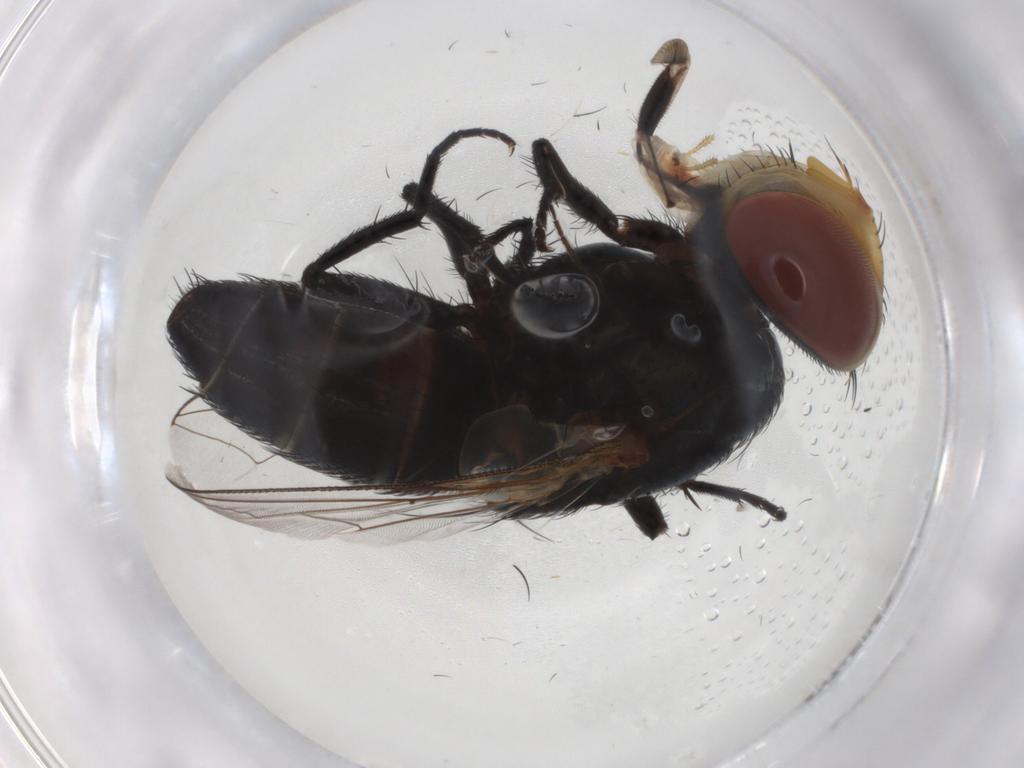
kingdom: Animalia
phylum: Arthropoda
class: Insecta
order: Diptera
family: Sarcophagidae
